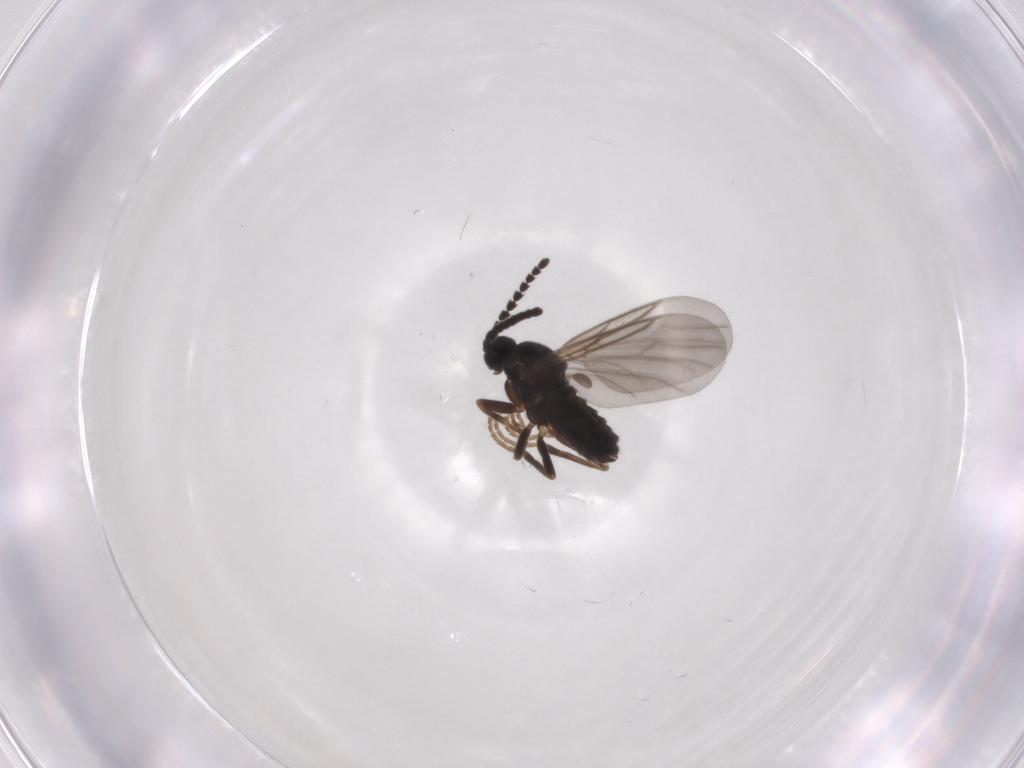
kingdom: Animalia
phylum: Arthropoda
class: Insecta
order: Diptera
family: Scatopsidae
